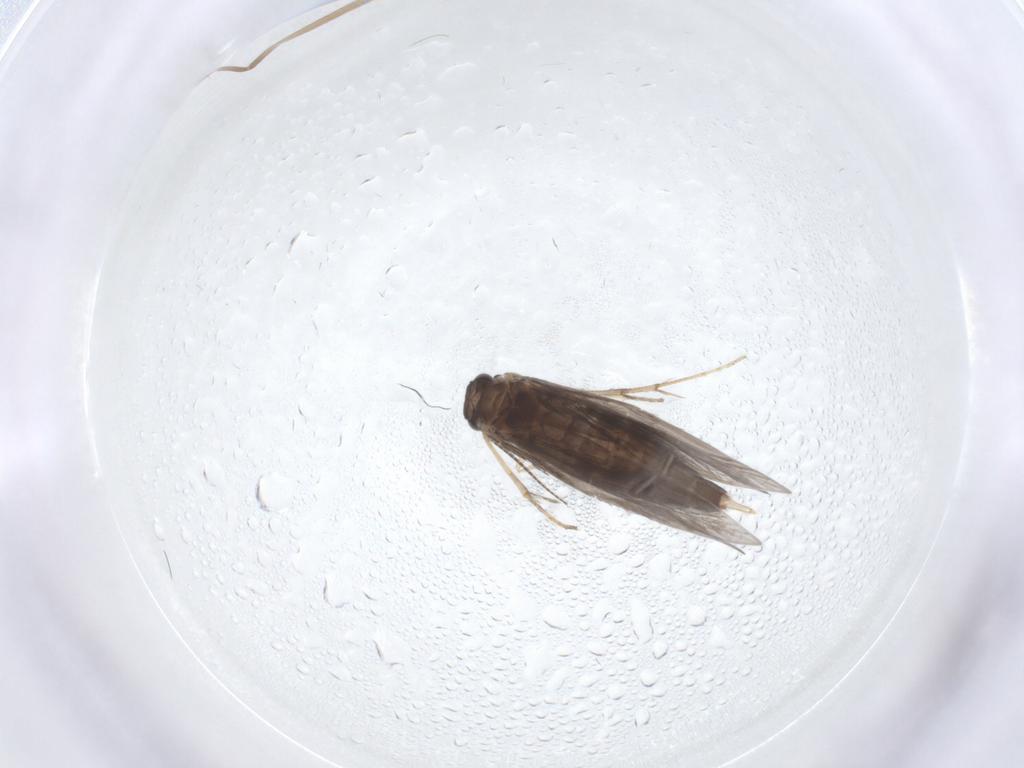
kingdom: Animalia
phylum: Arthropoda
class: Insecta
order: Trichoptera
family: Hydroptilidae
